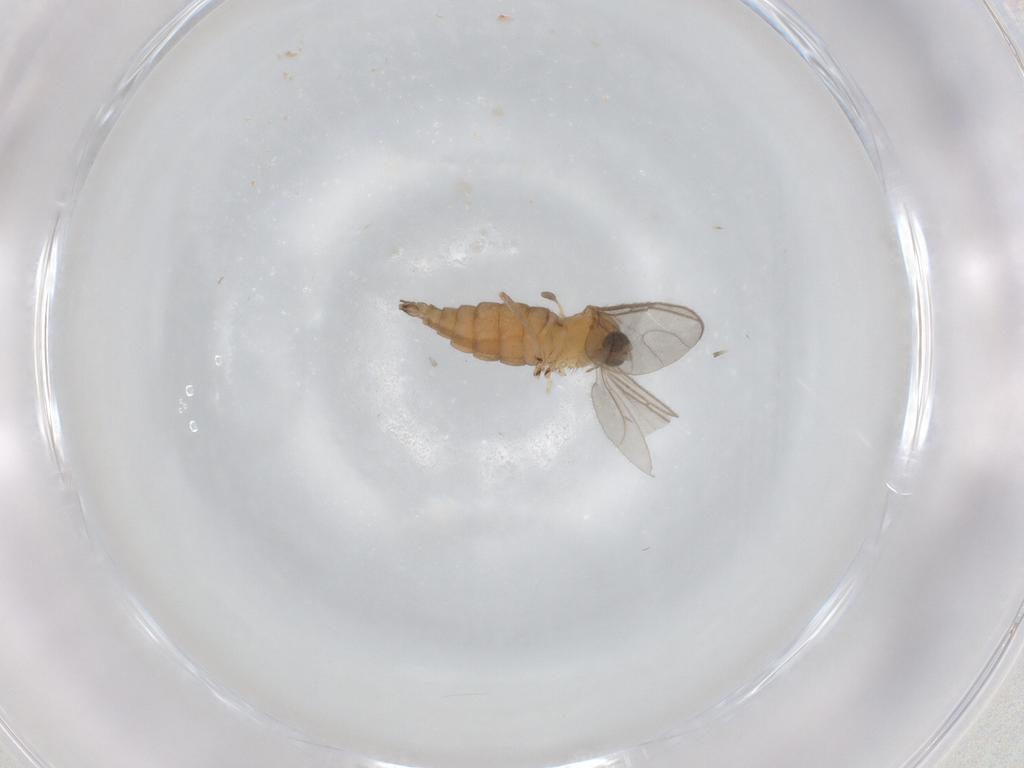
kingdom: Animalia
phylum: Arthropoda
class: Insecta
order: Diptera
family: Sciaridae
